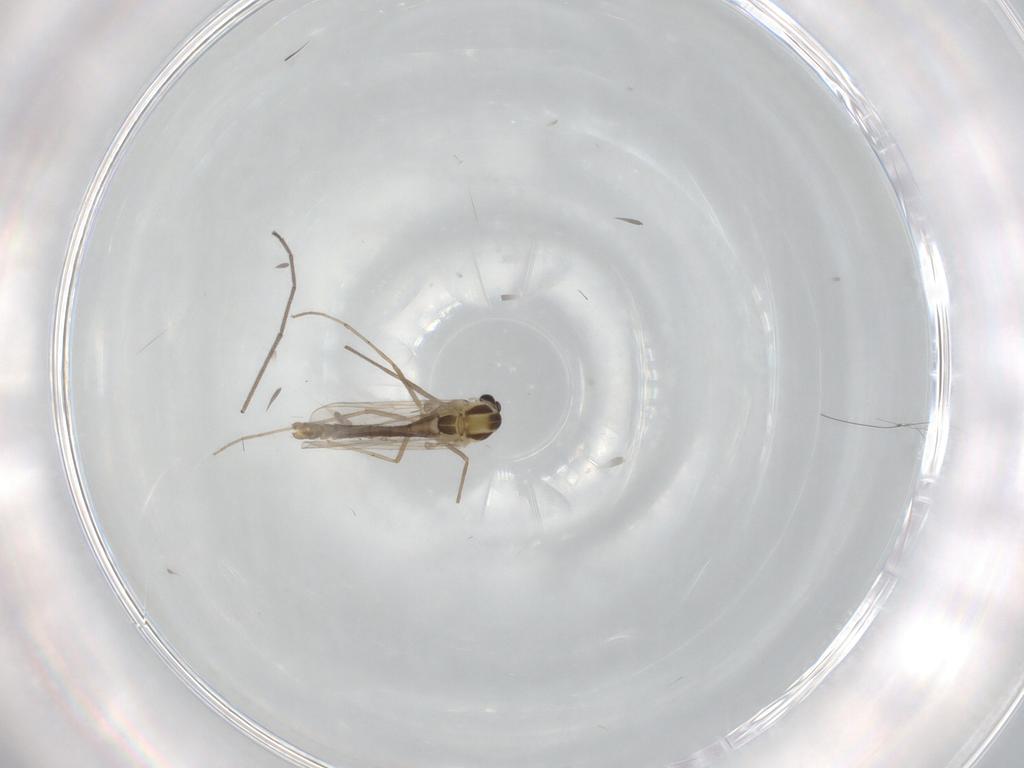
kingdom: Animalia
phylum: Arthropoda
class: Insecta
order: Diptera
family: Chironomidae
